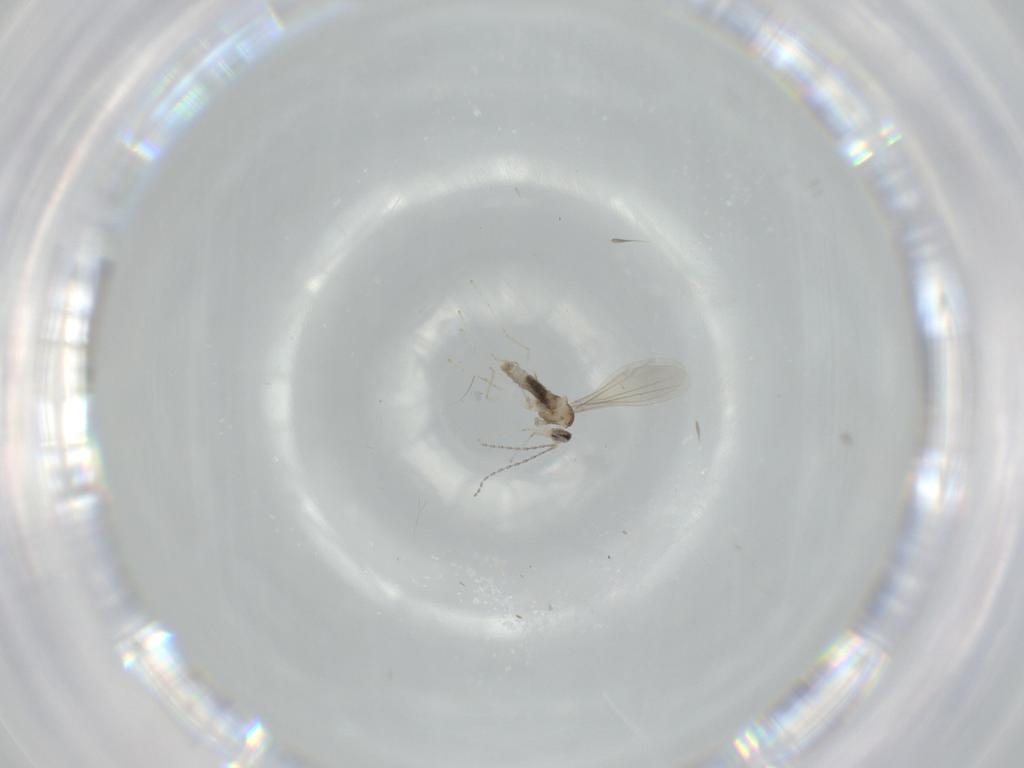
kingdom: Animalia
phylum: Arthropoda
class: Insecta
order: Diptera
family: Cecidomyiidae
